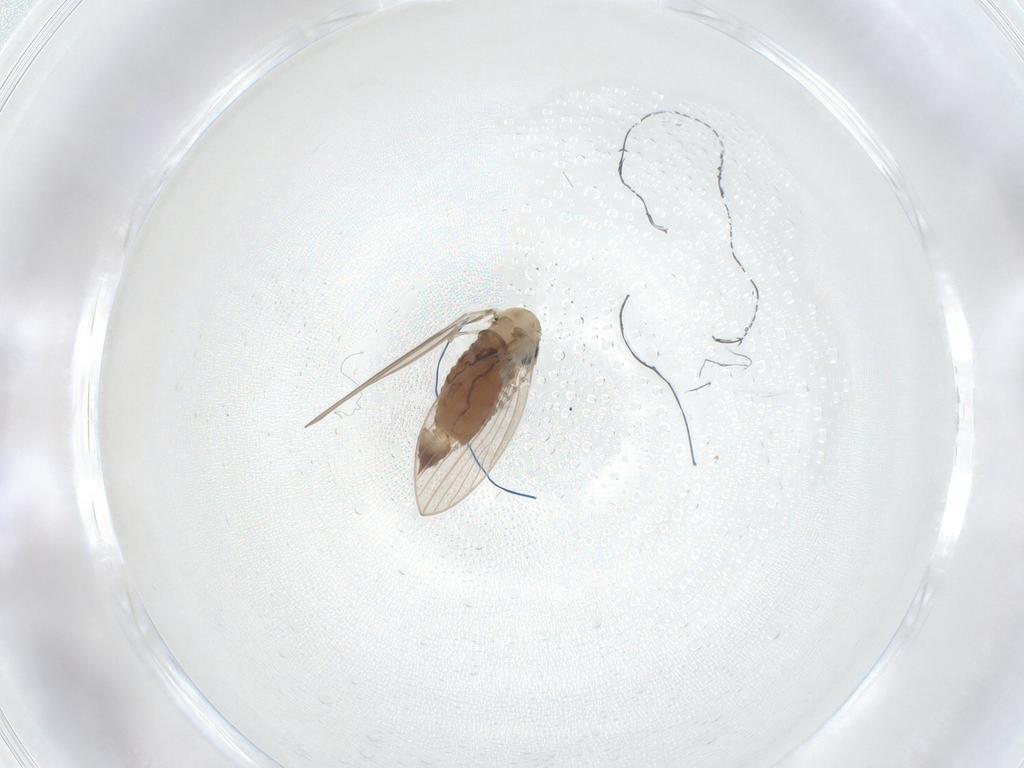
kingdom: Animalia
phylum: Arthropoda
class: Insecta
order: Diptera
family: Psychodidae
